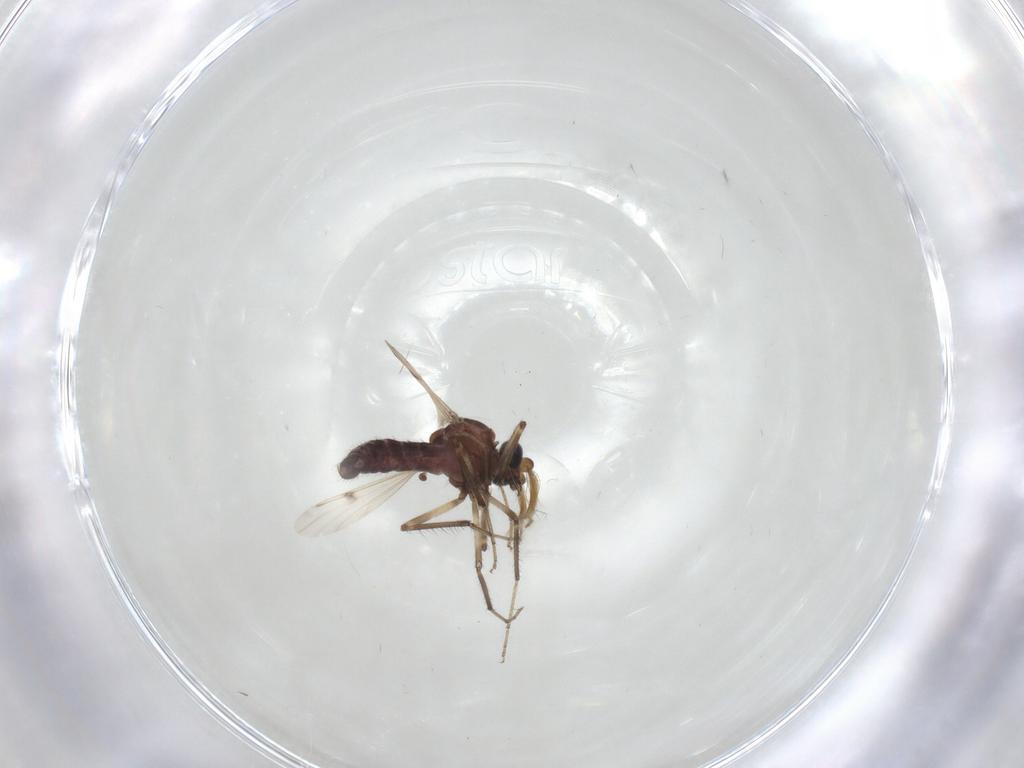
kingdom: Animalia
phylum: Arthropoda
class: Insecta
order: Diptera
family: Ceratopogonidae
